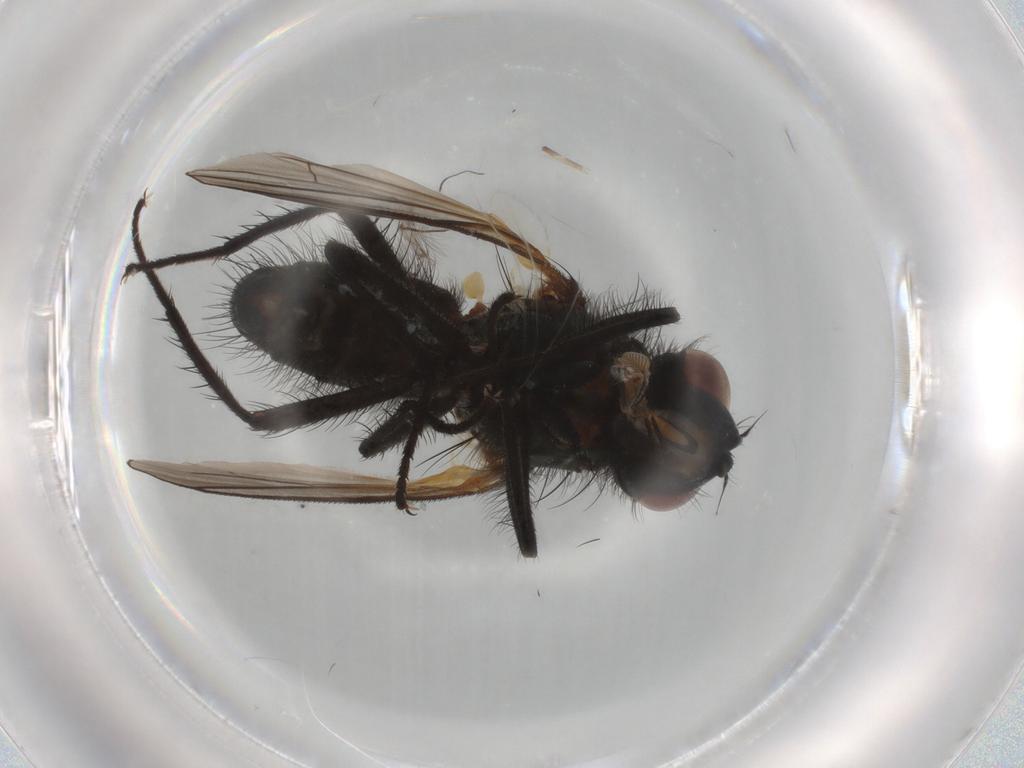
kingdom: Animalia
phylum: Arthropoda
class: Insecta
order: Diptera
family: Anthomyiidae
